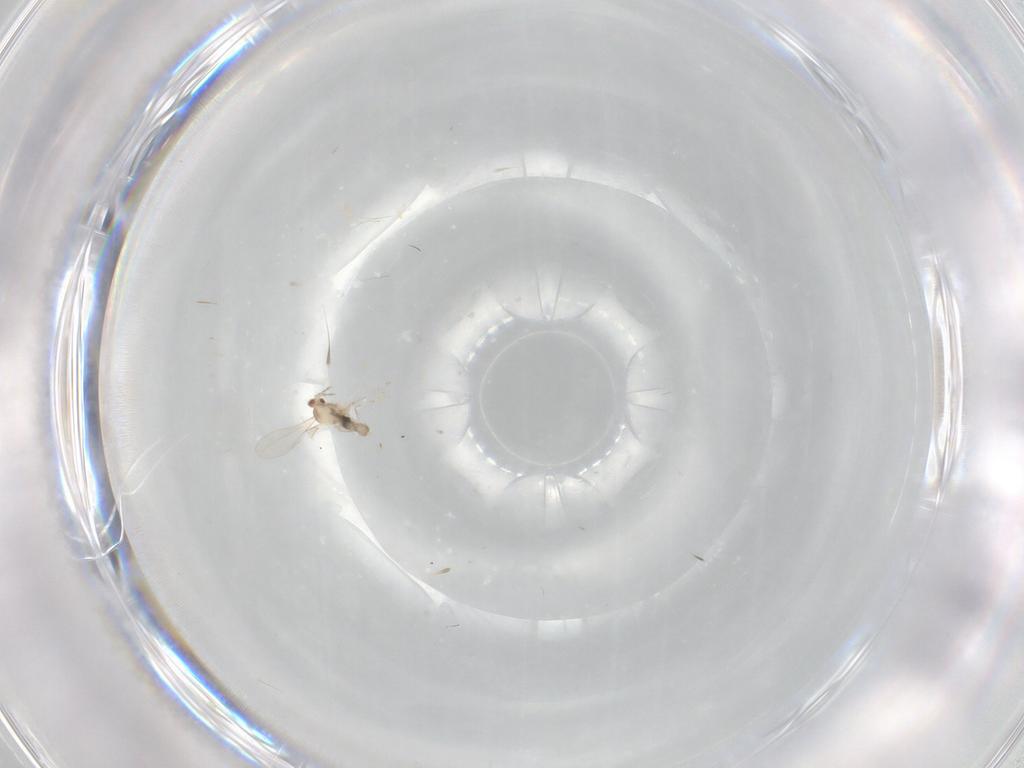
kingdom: Animalia
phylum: Arthropoda
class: Insecta
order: Diptera
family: Cecidomyiidae
